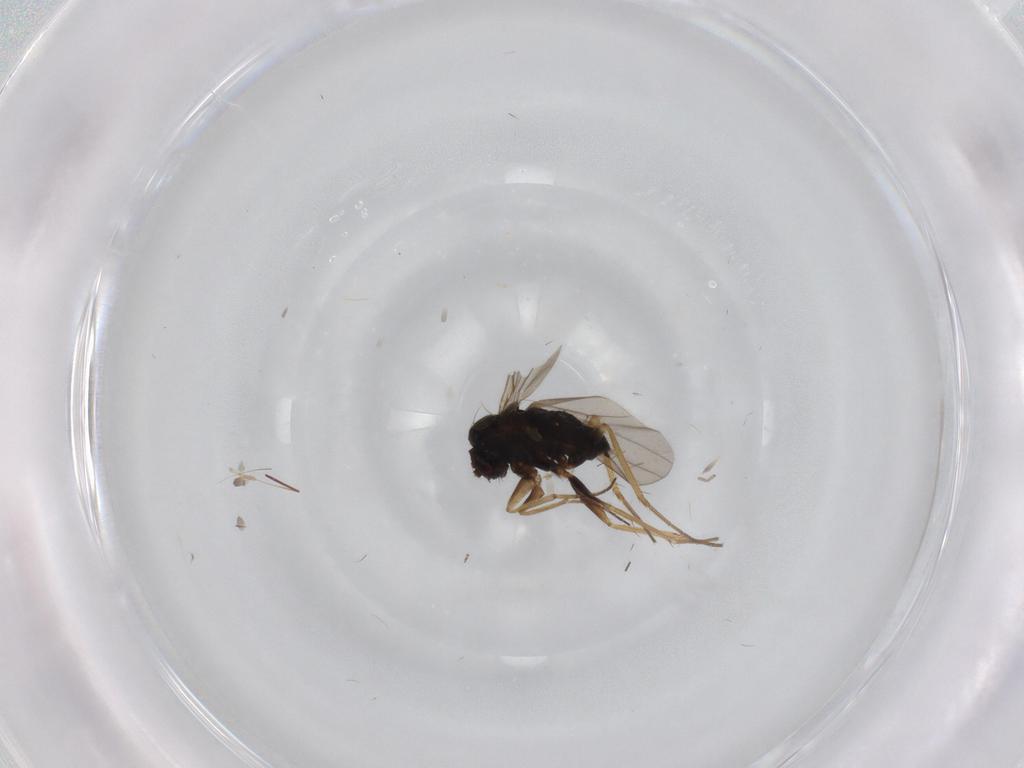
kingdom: Animalia
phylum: Arthropoda
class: Insecta
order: Diptera
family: Dolichopodidae
